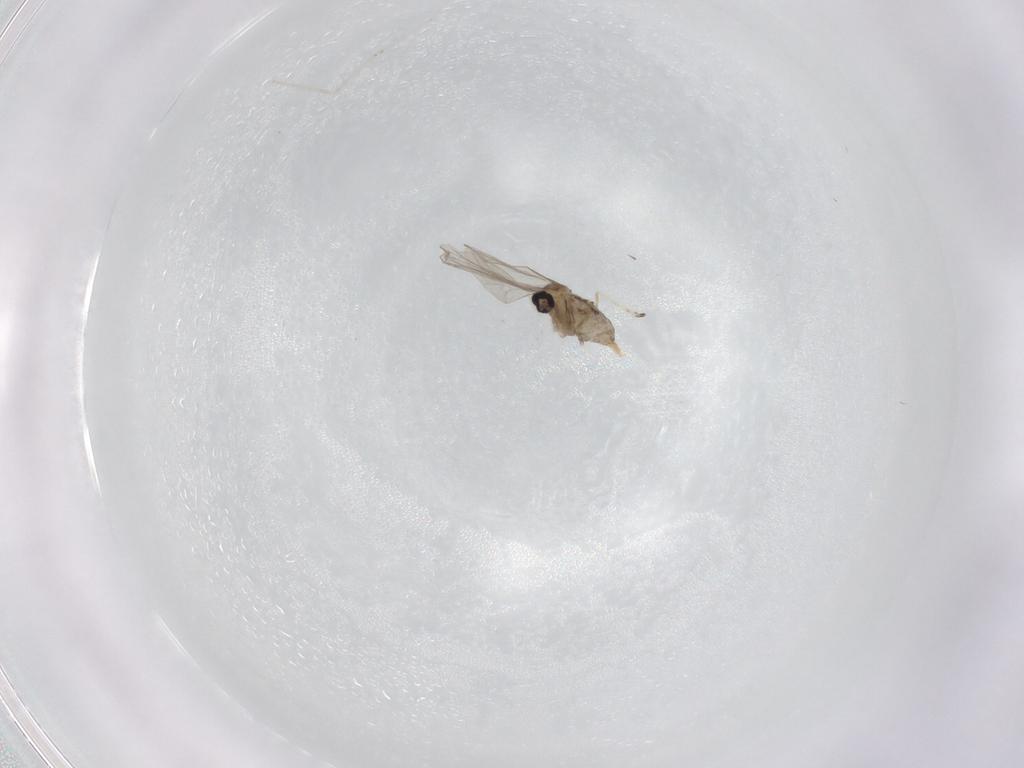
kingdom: Animalia
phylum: Arthropoda
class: Insecta
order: Diptera
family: Cecidomyiidae
